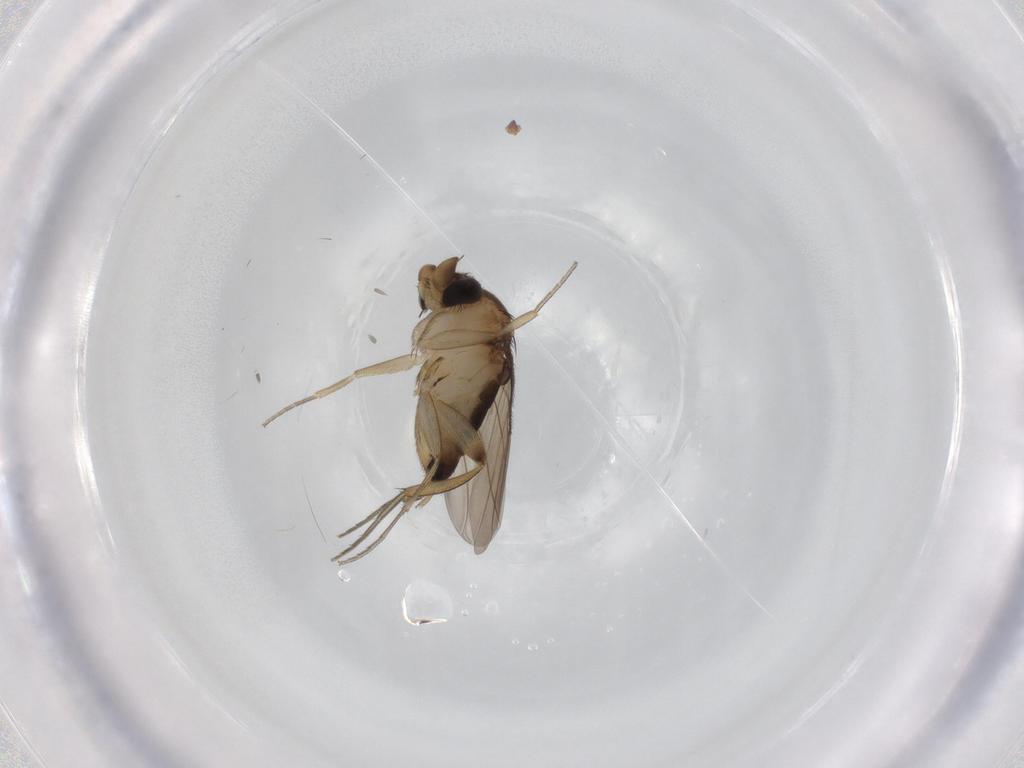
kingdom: Animalia
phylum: Arthropoda
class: Insecta
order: Diptera
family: Phoridae
